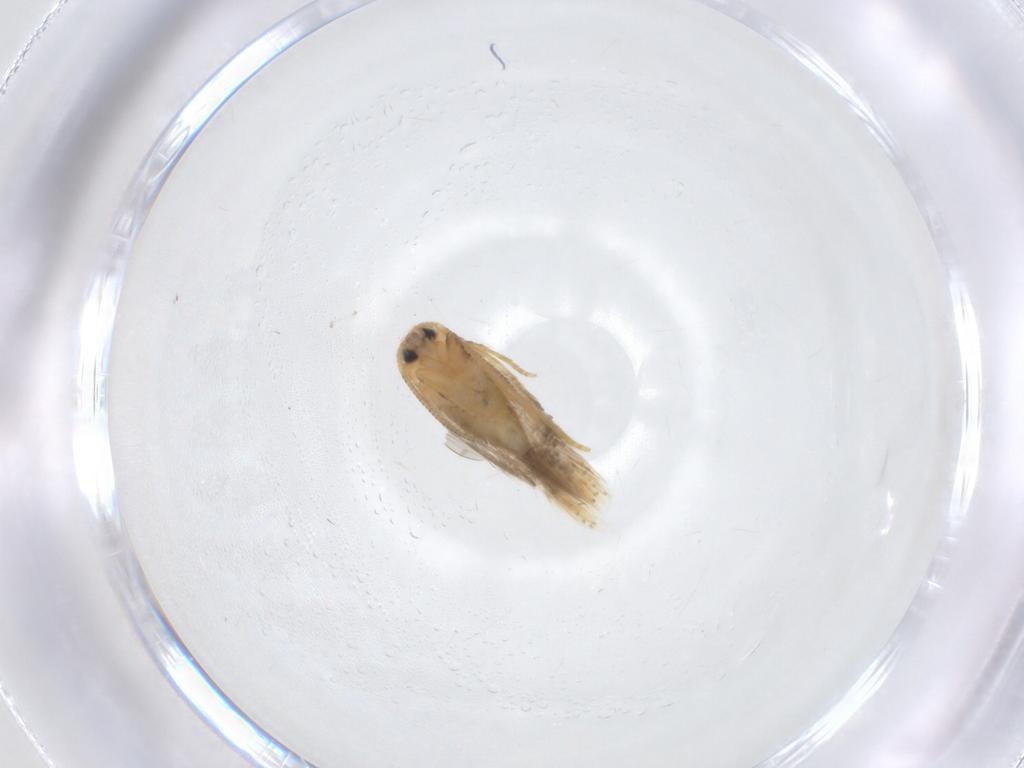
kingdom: Animalia
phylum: Arthropoda
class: Insecta
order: Lepidoptera
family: Nepticulidae
